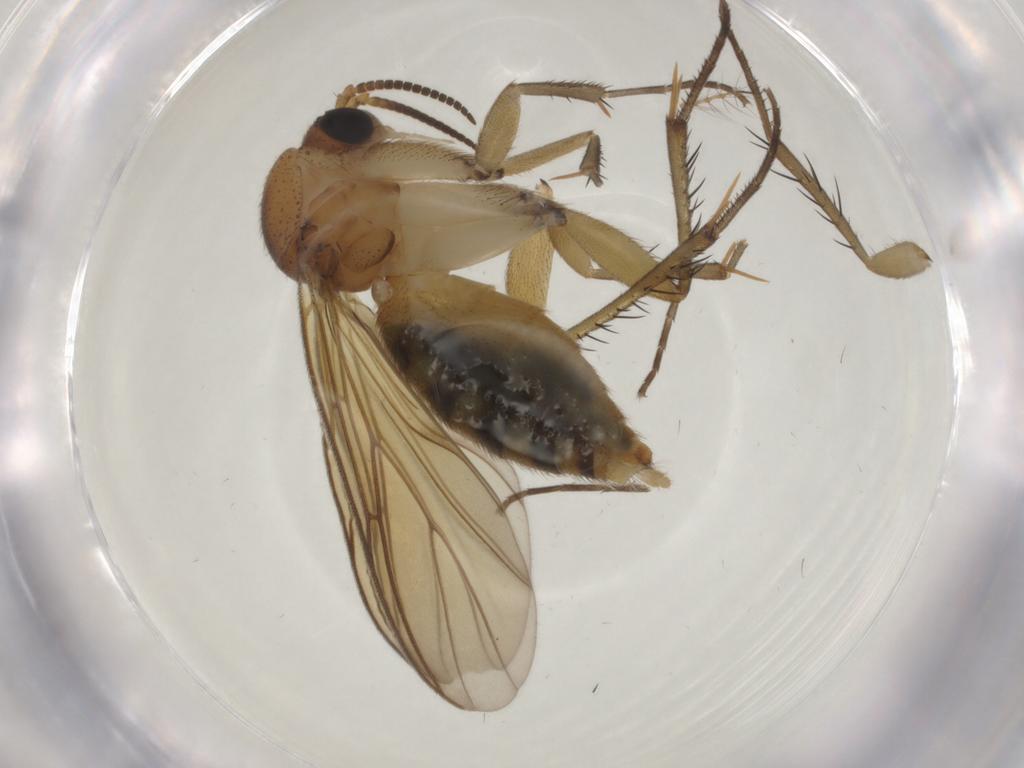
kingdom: Animalia
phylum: Arthropoda
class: Insecta
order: Diptera
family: Mycetophilidae
